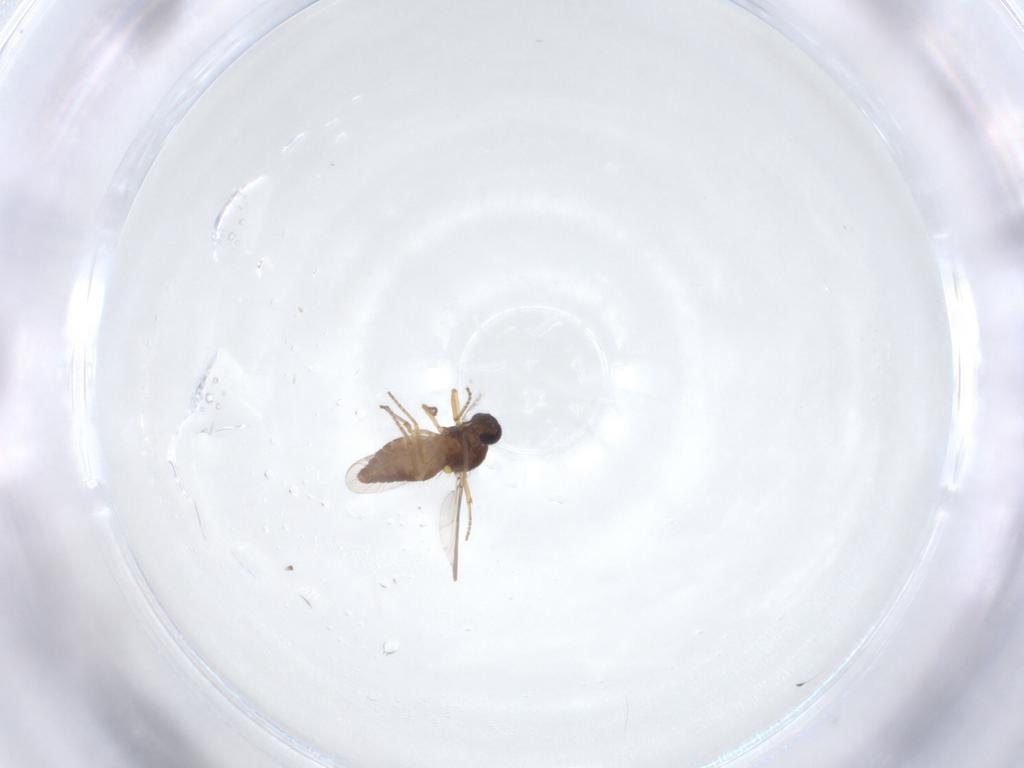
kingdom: Animalia
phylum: Arthropoda
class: Insecta
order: Diptera
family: Ceratopogonidae
